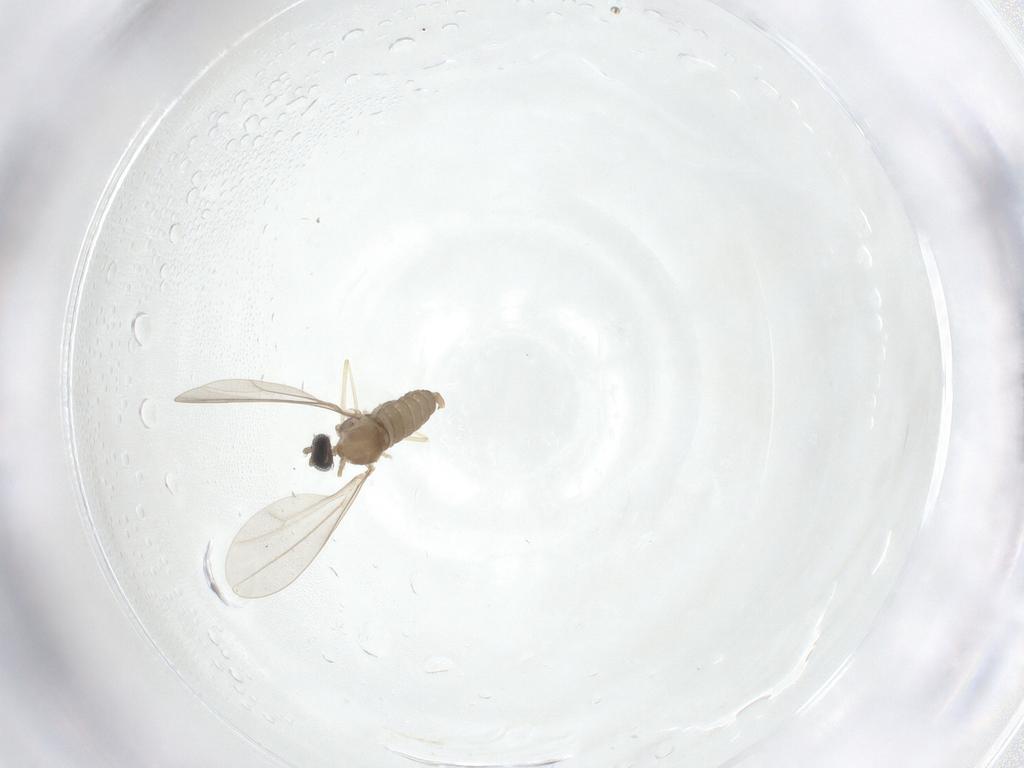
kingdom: Animalia
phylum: Arthropoda
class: Insecta
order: Diptera
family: Cecidomyiidae
